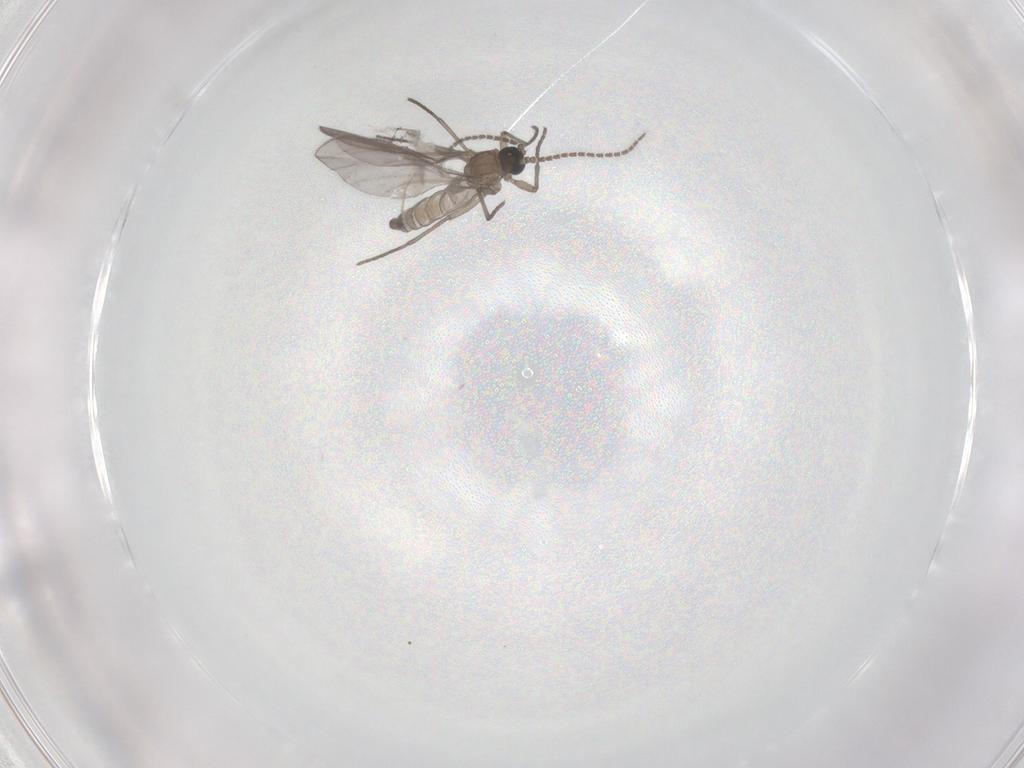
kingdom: Animalia
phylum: Arthropoda
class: Insecta
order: Diptera
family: Sciaridae
